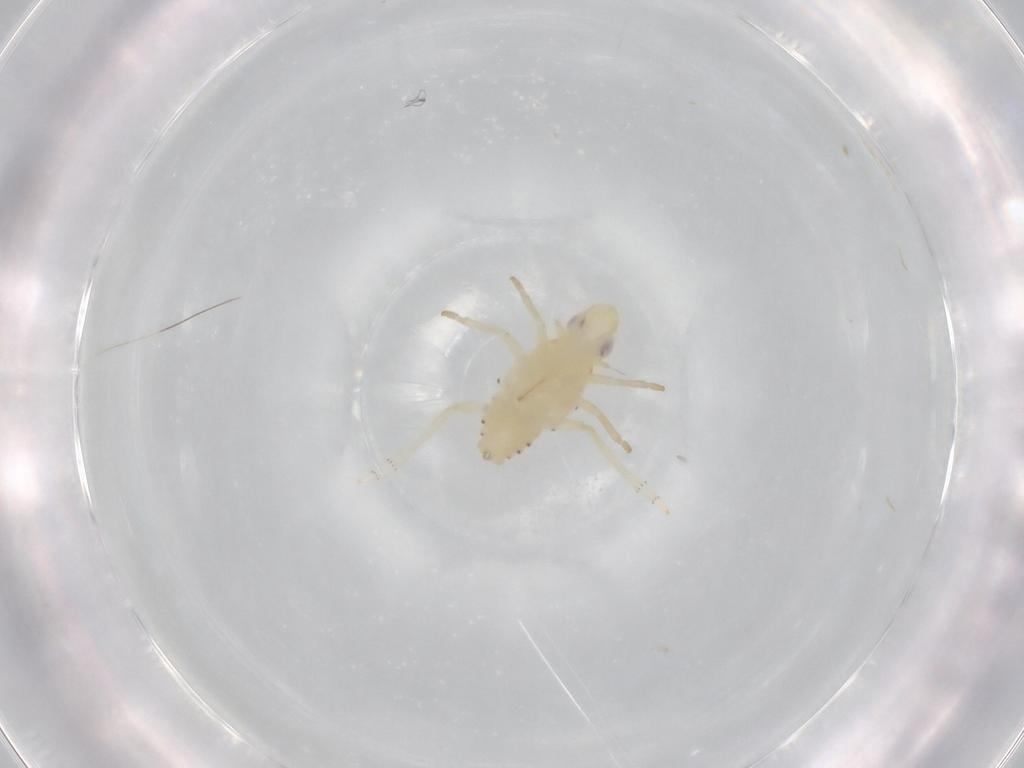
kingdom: Animalia
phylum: Arthropoda
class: Insecta
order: Hemiptera
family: Tropiduchidae
